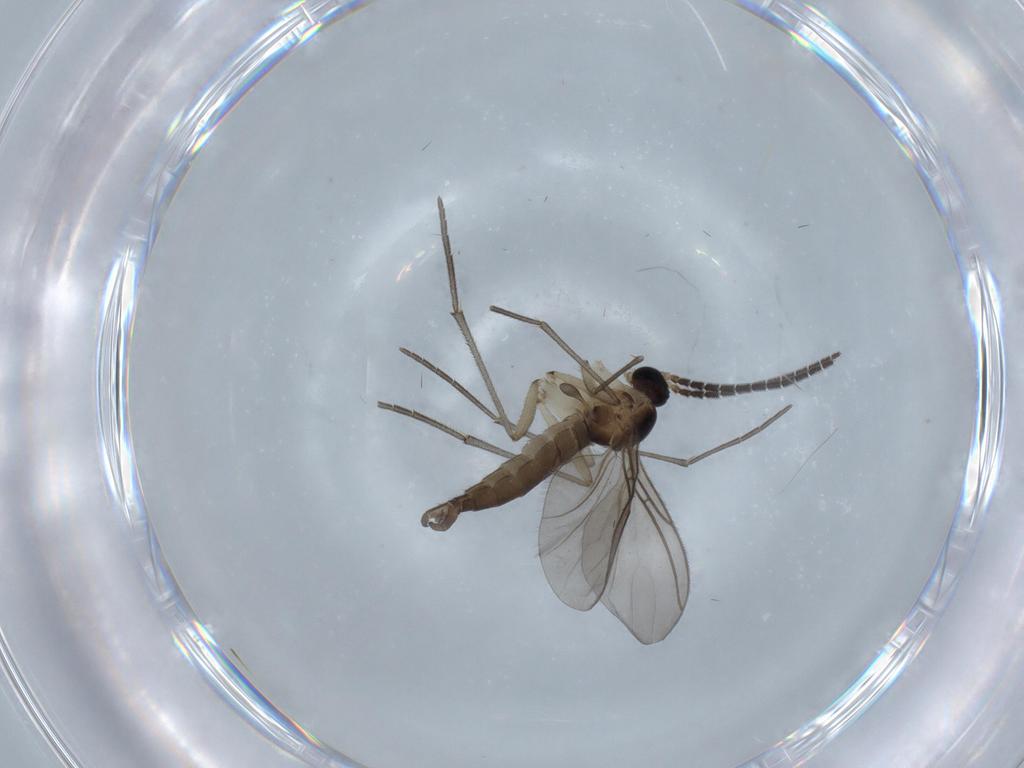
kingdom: Animalia
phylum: Arthropoda
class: Insecta
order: Diptera
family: Sciaridae
